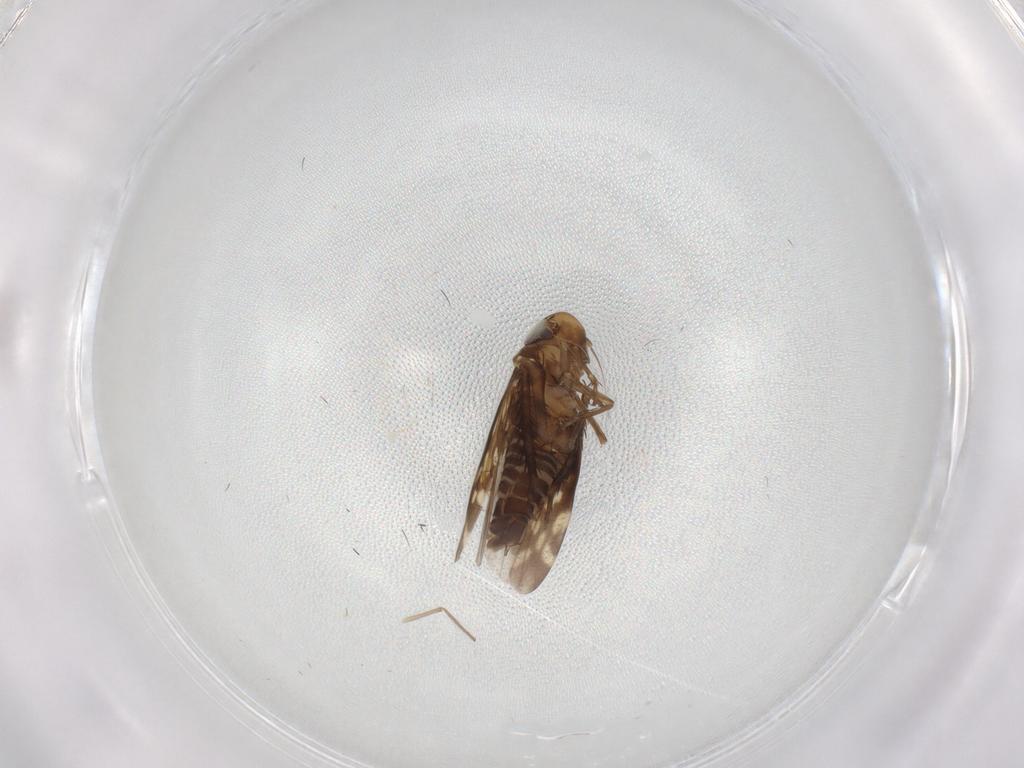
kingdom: Animalia
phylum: Arthropoda
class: Insecta
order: Hemiptera
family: Cicadellidae
